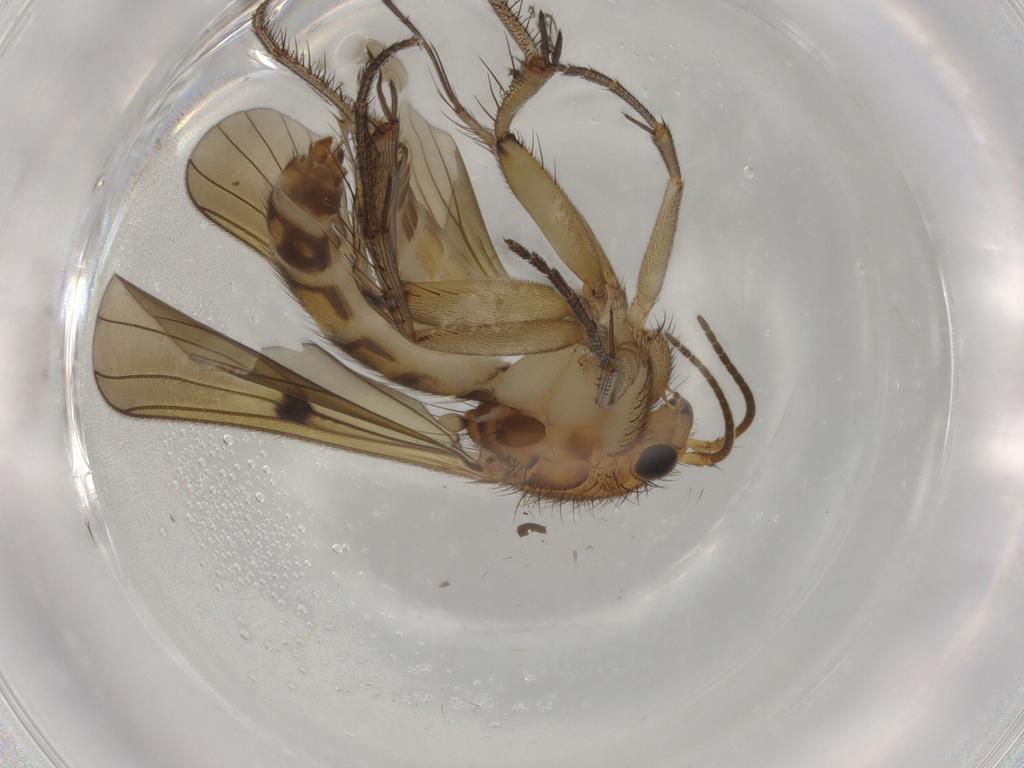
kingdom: Animalia
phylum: Arthropoda
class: Insecta
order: Diptera
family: Mycetophilidae
